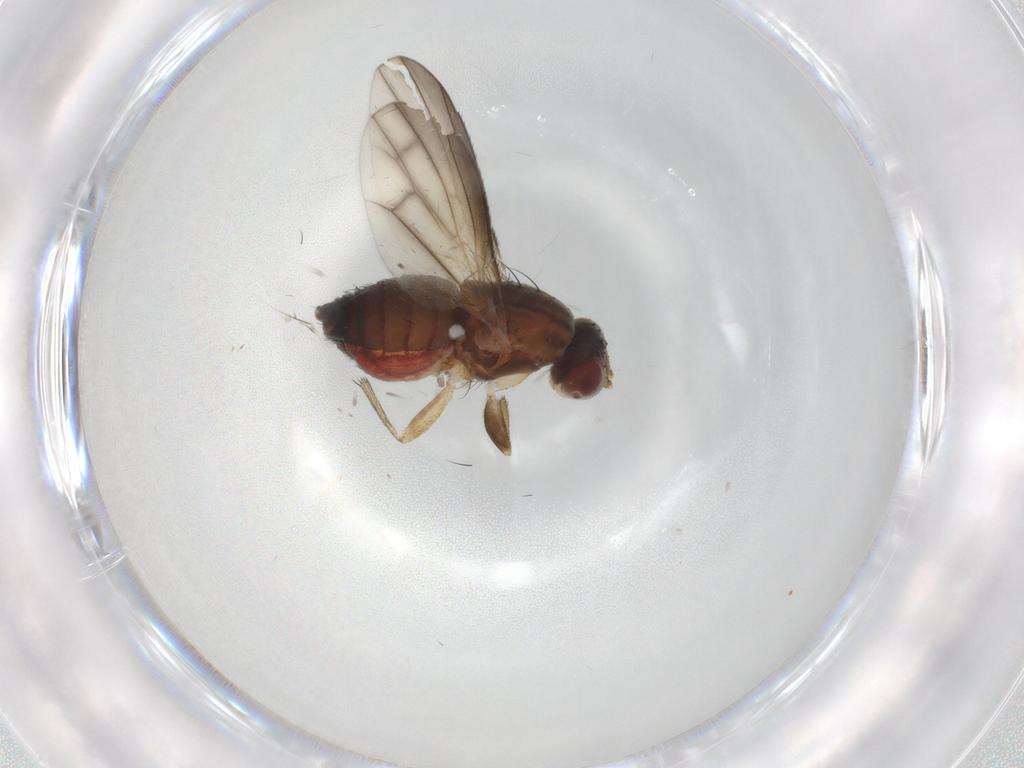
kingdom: Animalia
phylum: Arthropoda
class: Insecta
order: Diptera
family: Heleomyzidae
